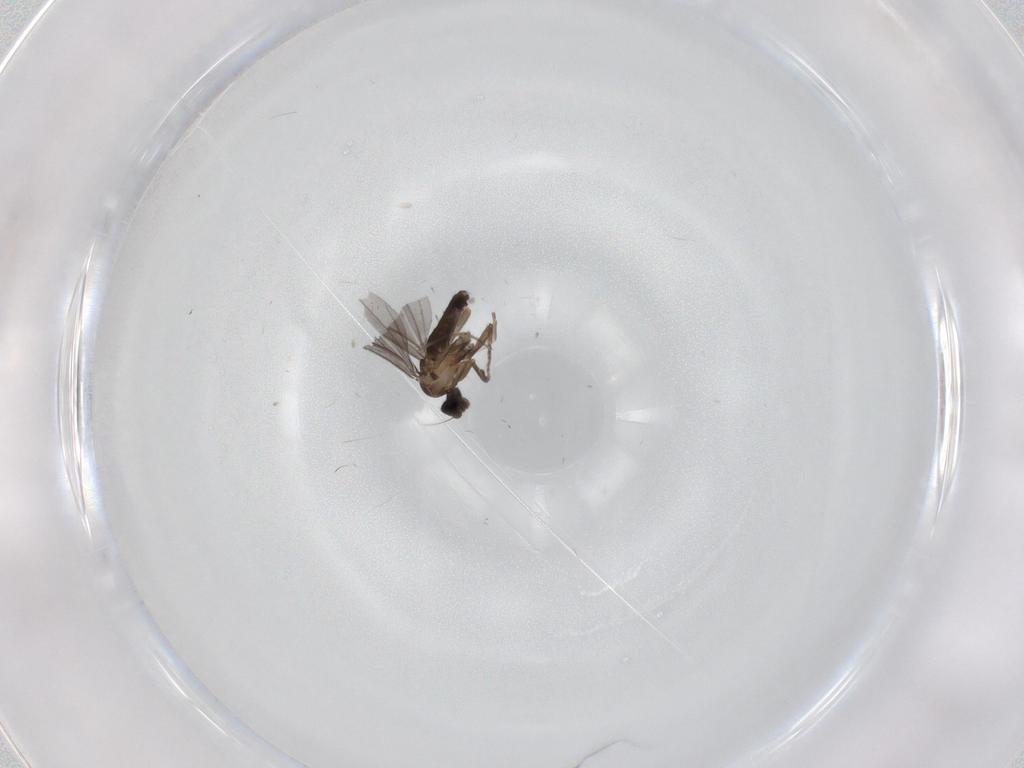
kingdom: Animalia
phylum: Arthropoda
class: Insecta
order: Diptera
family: Phoridae
